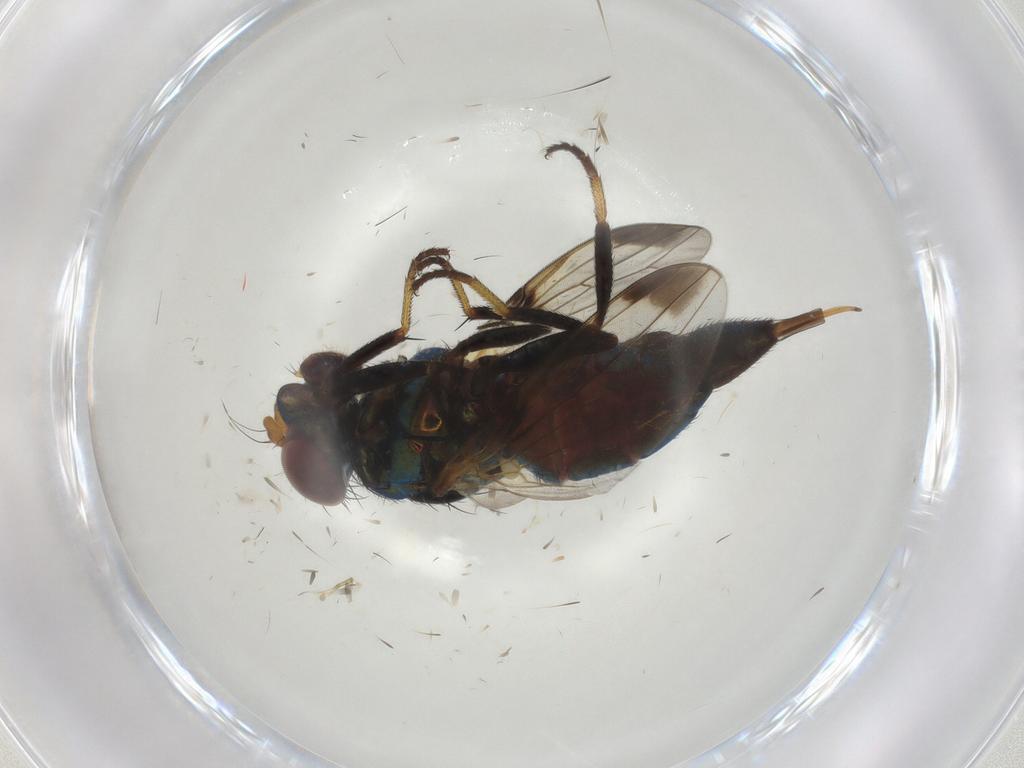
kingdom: Animalia
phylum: Arthropoda
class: Insecta
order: Diptera
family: Ulidiidae
